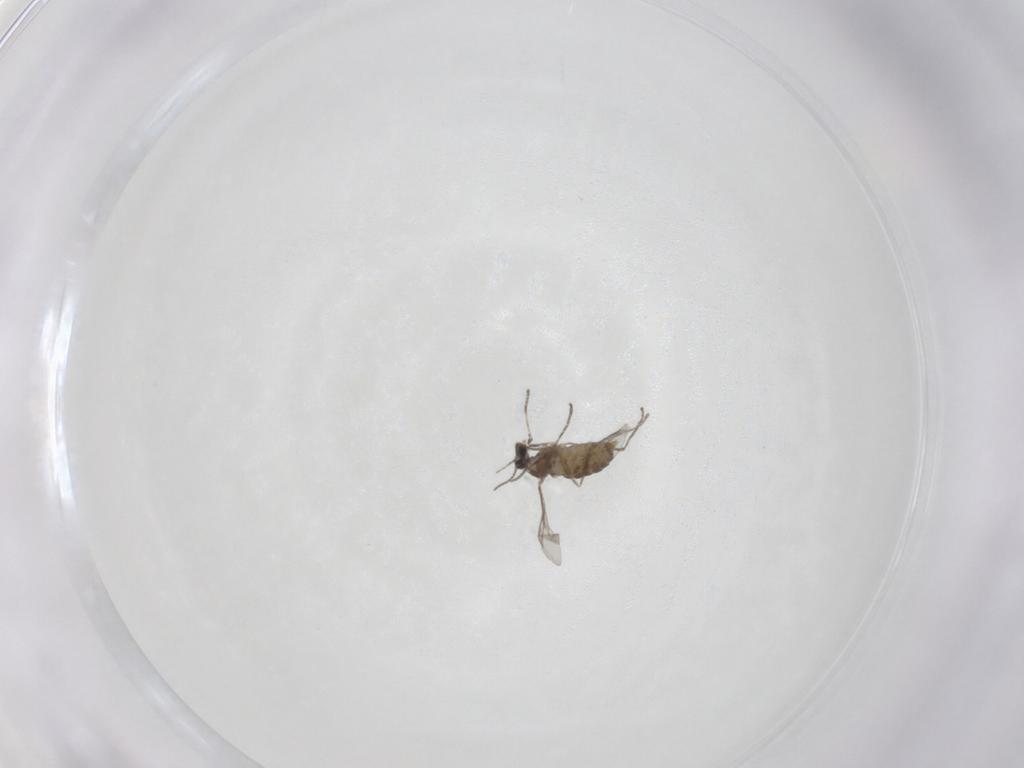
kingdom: Animalia
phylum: Arthropoda
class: Insecta
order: Diptera
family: Cecidomyiidae
